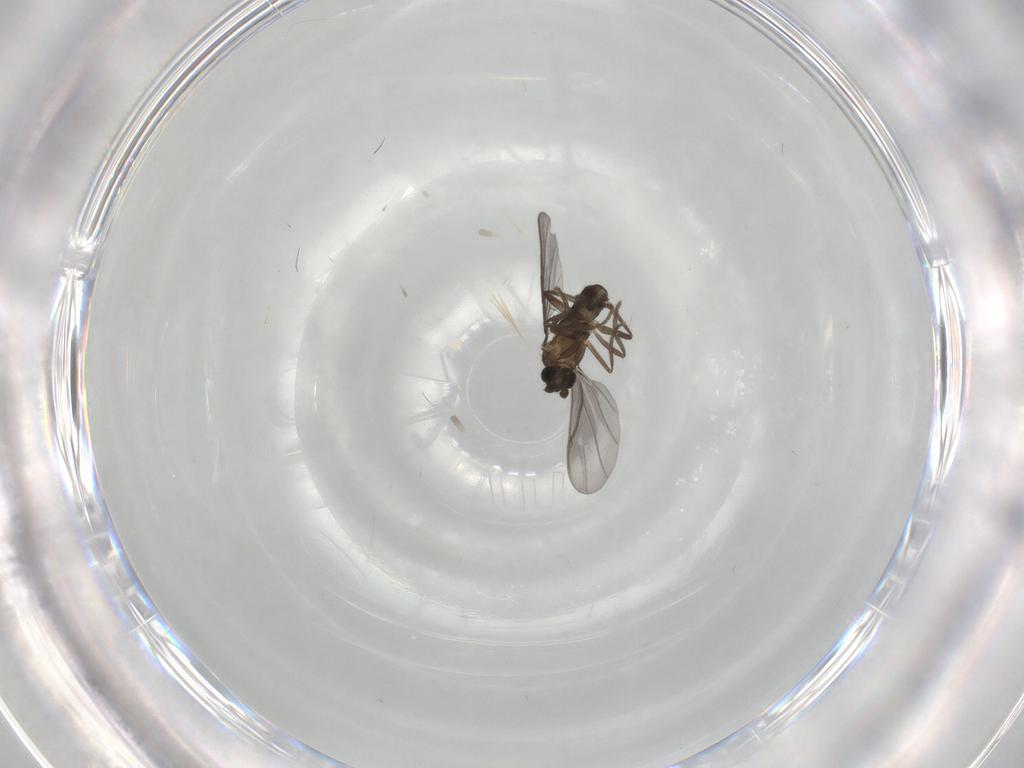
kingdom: Animalia
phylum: Arthropoda
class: Insecta
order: Diptera
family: Phoridae
